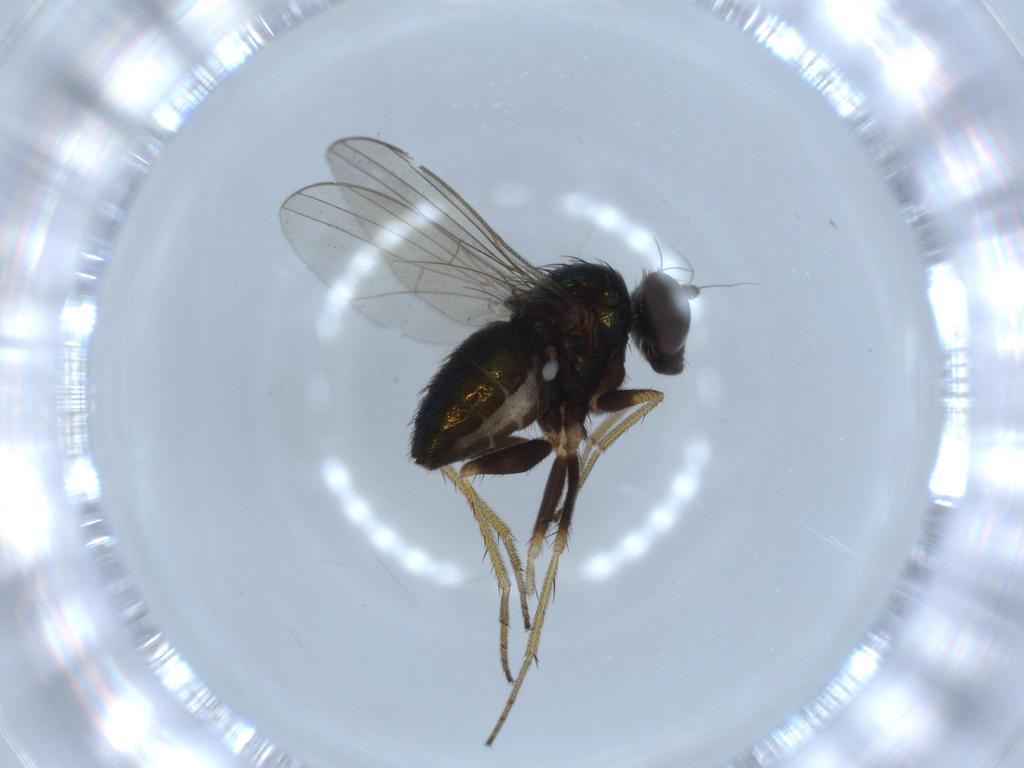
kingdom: Animalia
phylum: Arthropoda
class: Insecta
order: Diptera
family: Dolichopodidae
